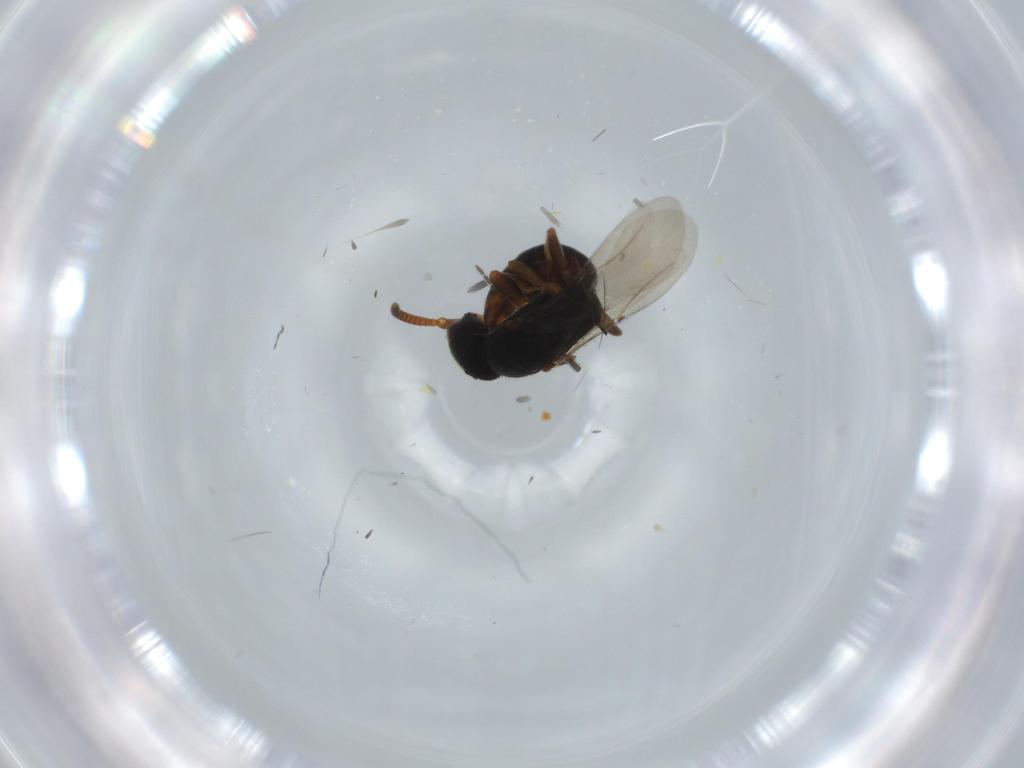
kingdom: Animalia
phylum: Arthropoda
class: Insecta
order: Hymenoptera
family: Bethylidae
